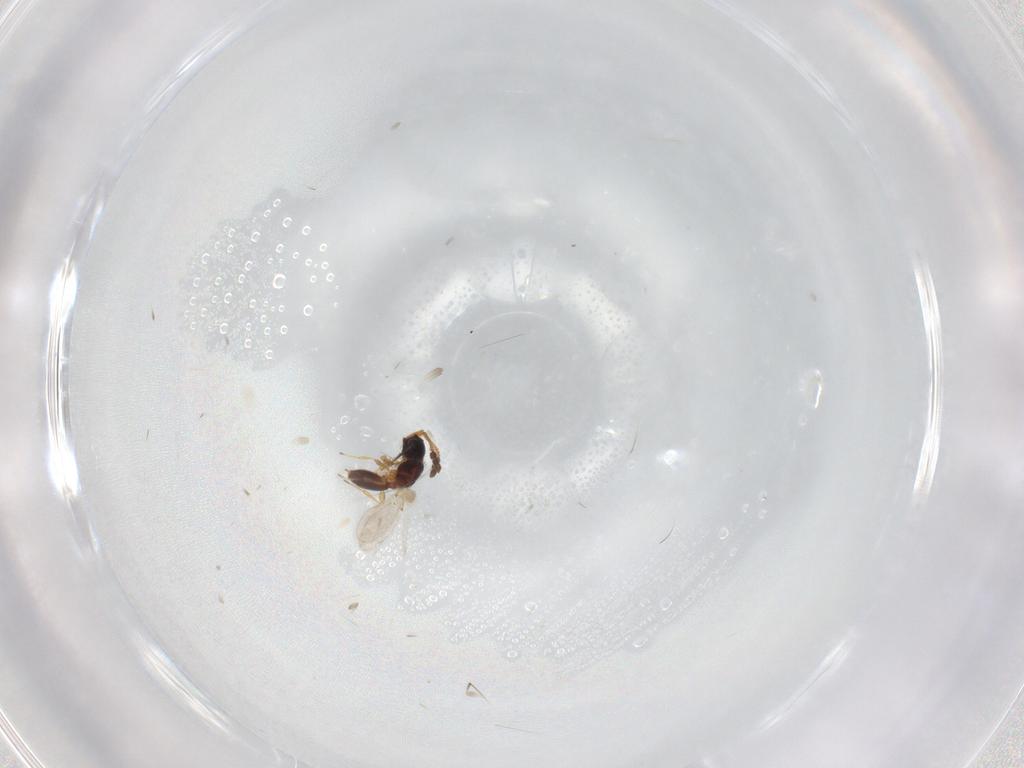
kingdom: Animalia
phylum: Arthropoda
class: Insecta
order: Hymenoptera
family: Diapriidae
